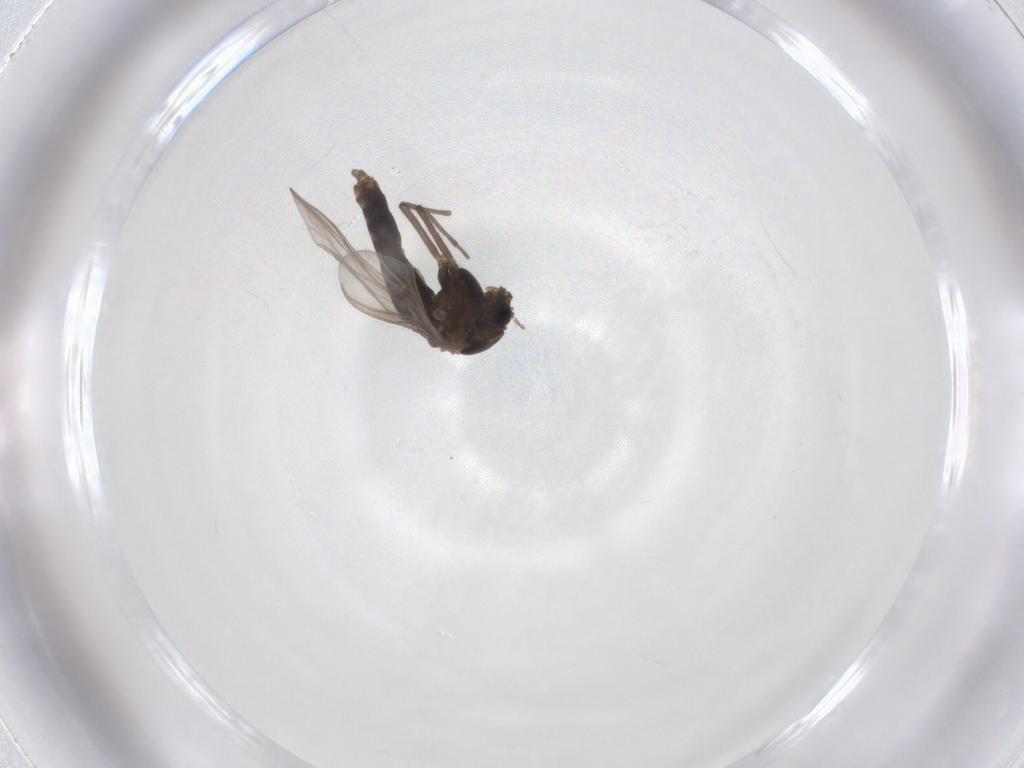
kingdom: Animalia
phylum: Arthropoda
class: Insecta
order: Diptera
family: Chironomidae
